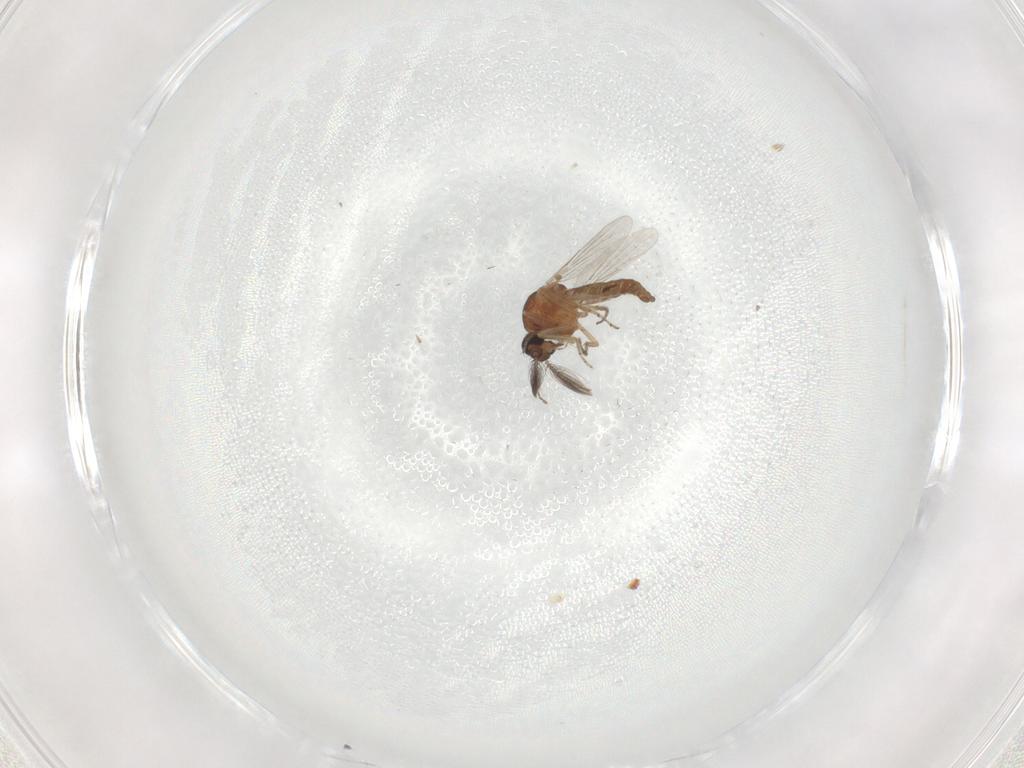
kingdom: Animalia
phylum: Arthropoda
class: Insecta
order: Diptera
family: Ceratopogonidae
